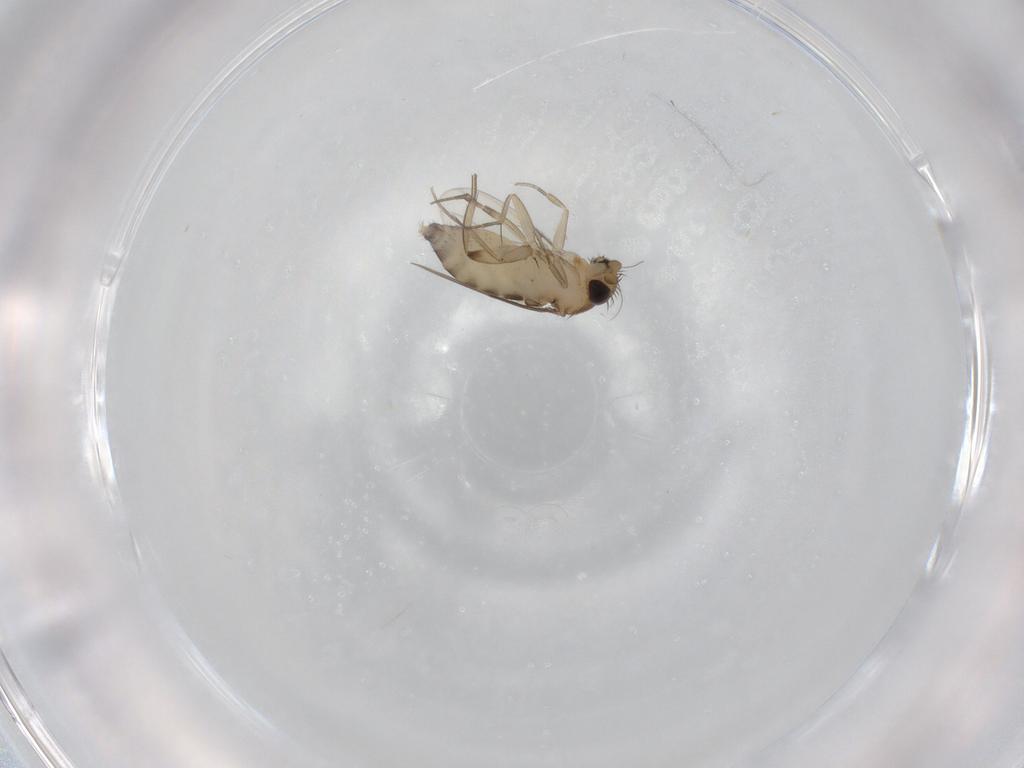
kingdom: Animalia
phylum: Arthropoda
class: Insecta
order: Diptera
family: Phoridae
